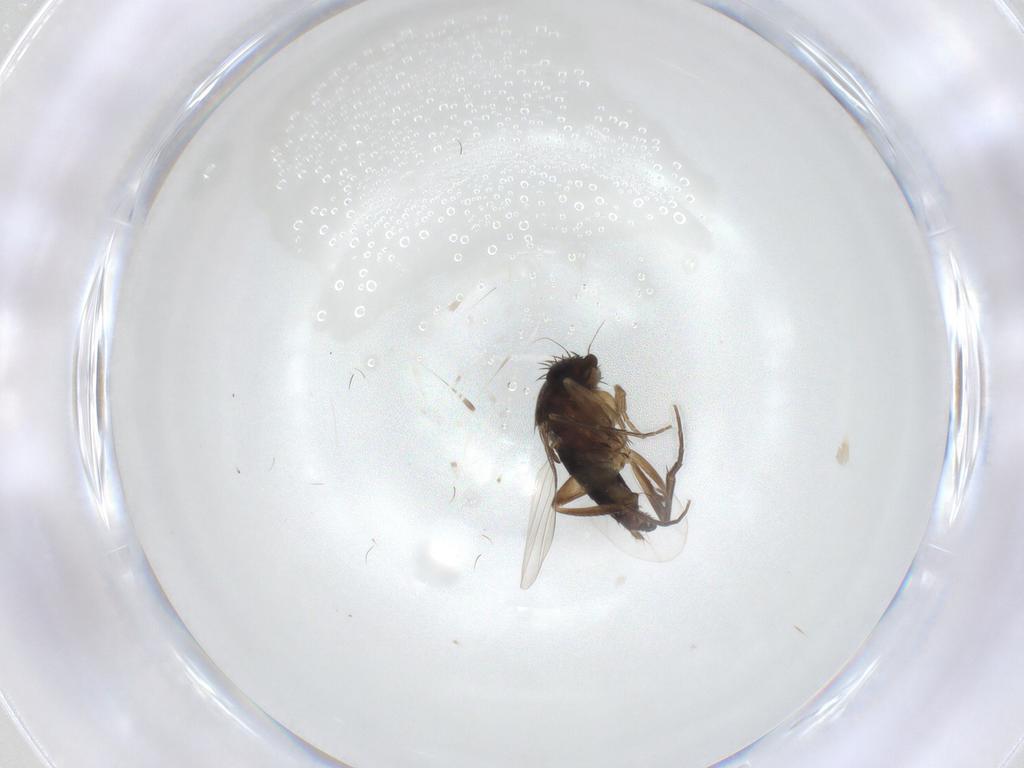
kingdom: Animalia
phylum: Arthropoda
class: Insecta
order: Diptera
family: Phoridae
